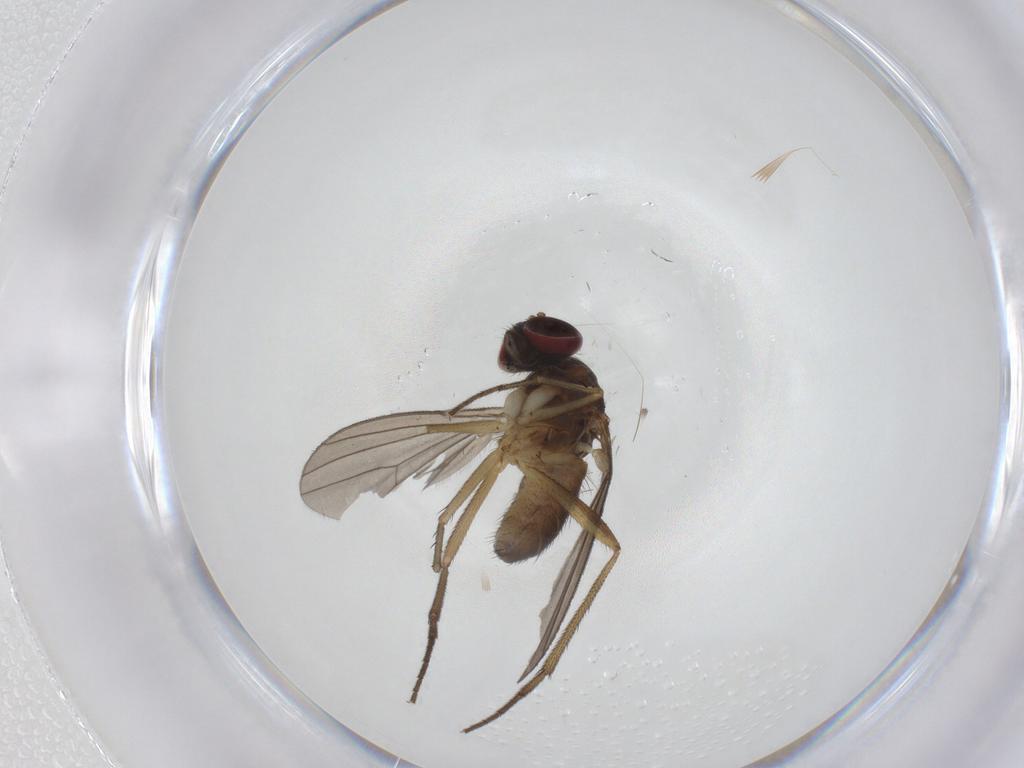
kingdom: Animalia
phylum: Arthropoda
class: Insecta
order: Diptera
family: Dolichopodidae
